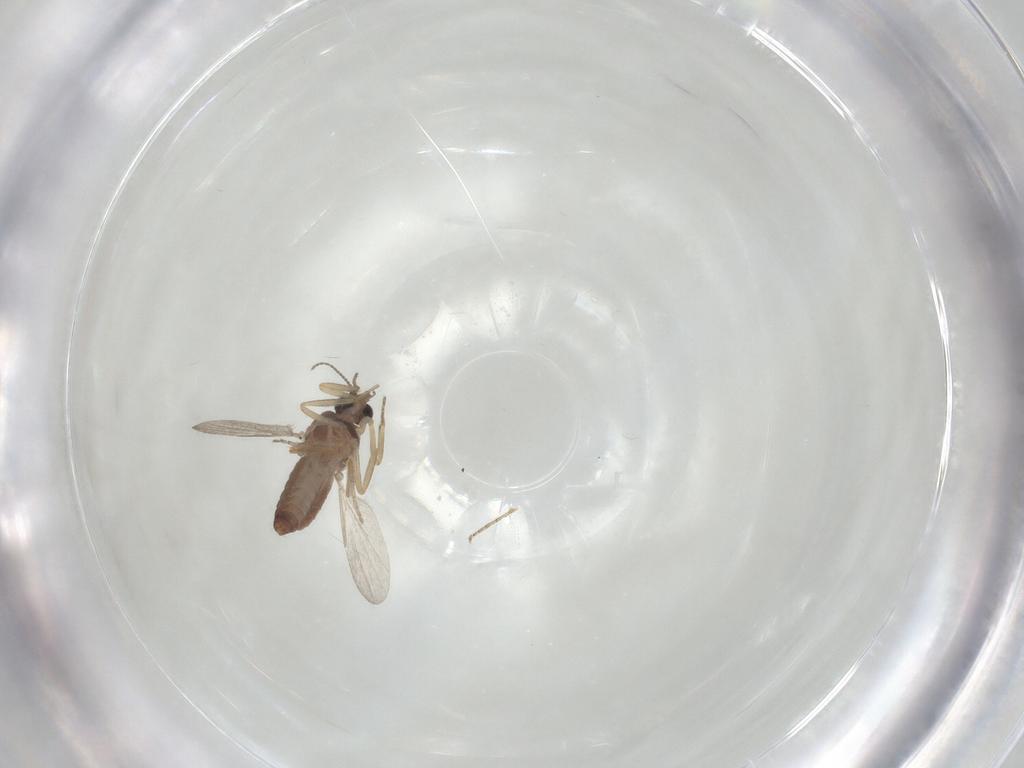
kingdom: Animalia
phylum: Arthropoda
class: Insecta
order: Diptera
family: Ceratopogonidae
